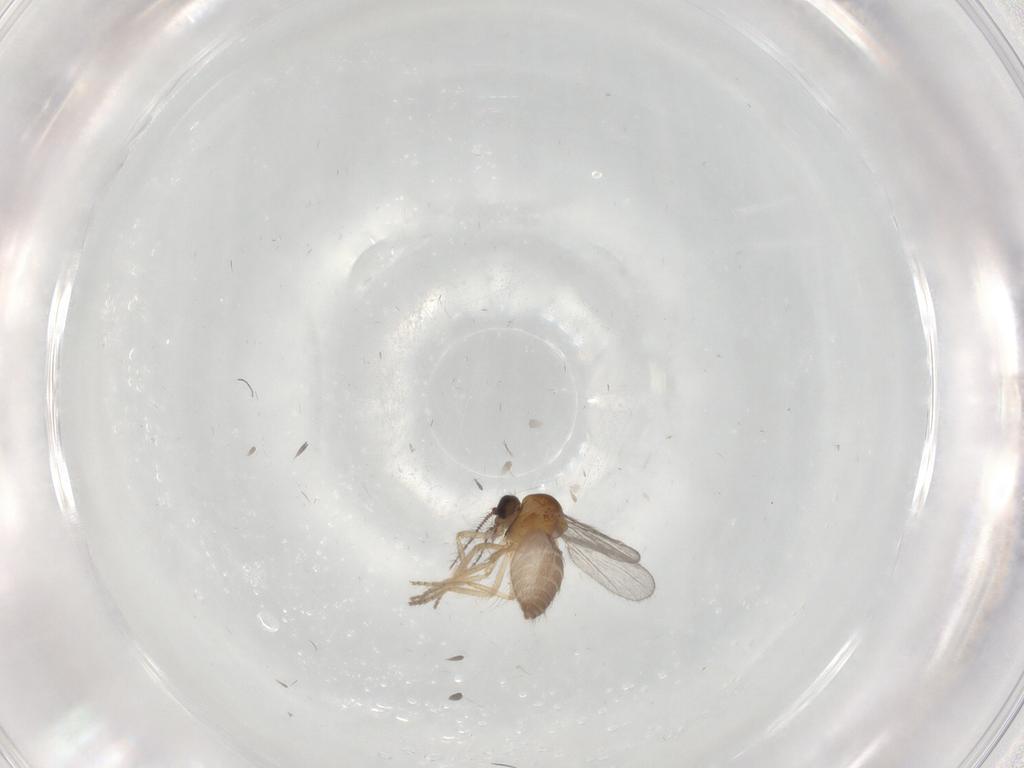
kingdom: Animalia
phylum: Arthropoda
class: Insecta
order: Diptera
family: Ceratopogonidae
